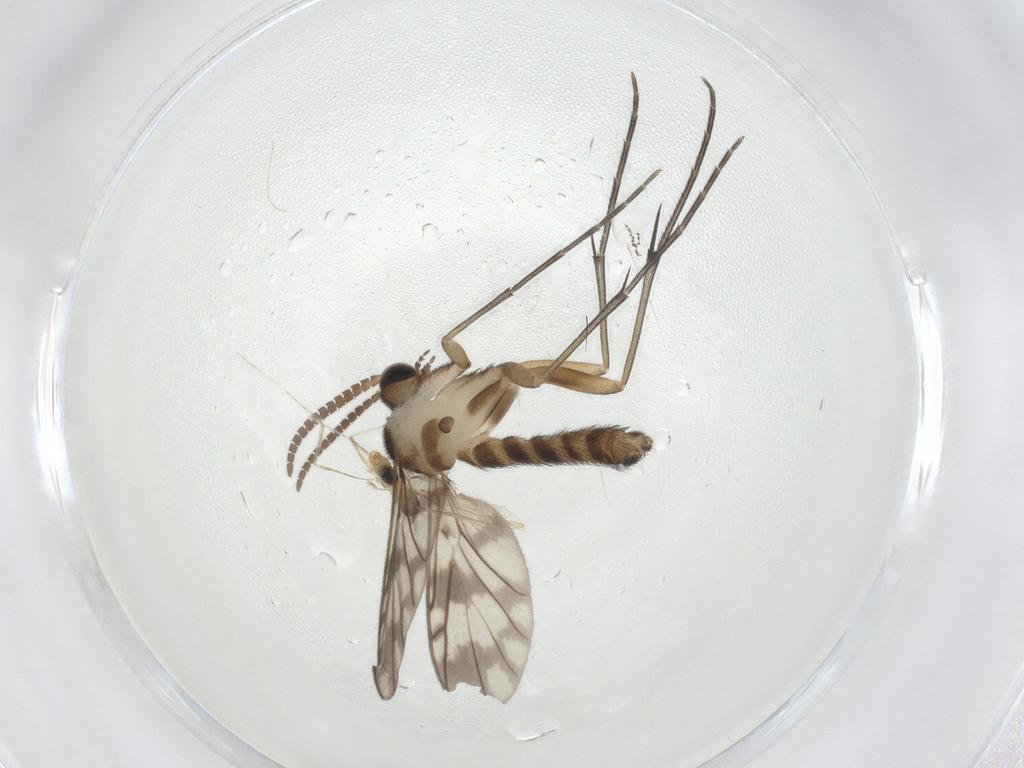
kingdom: Animalia
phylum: Arthropoda
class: Insecta
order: Diptera
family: Keroplatidae
